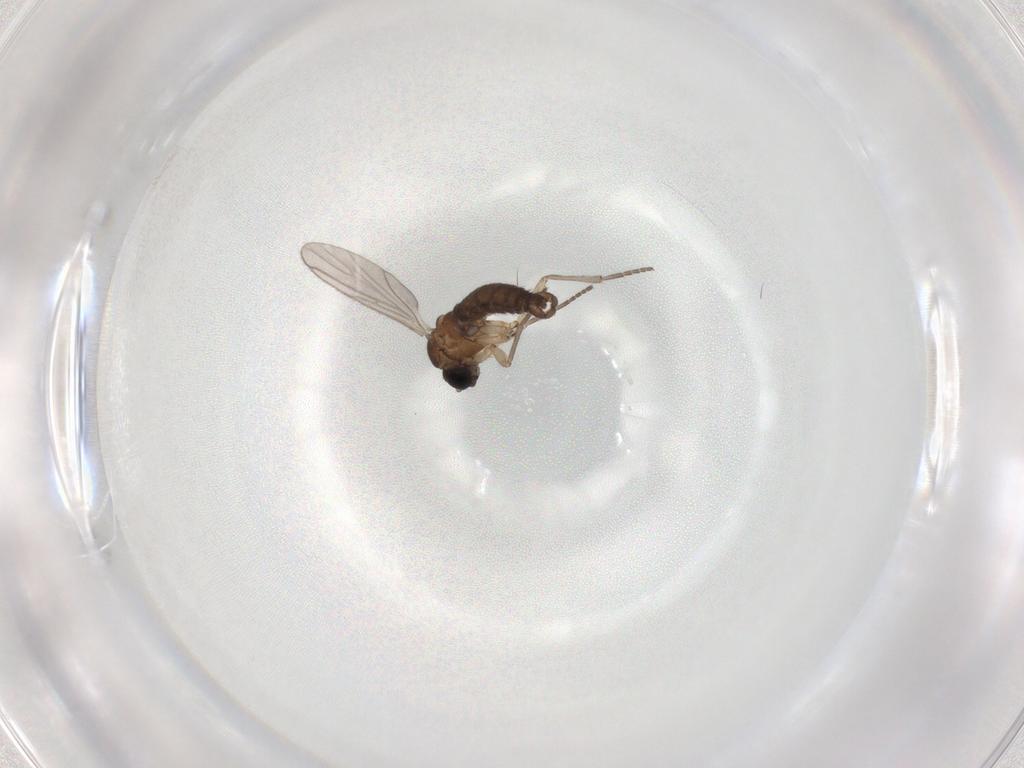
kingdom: Animalia
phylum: Arthropoda
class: Insecta
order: Diptera
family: Sciaridae
